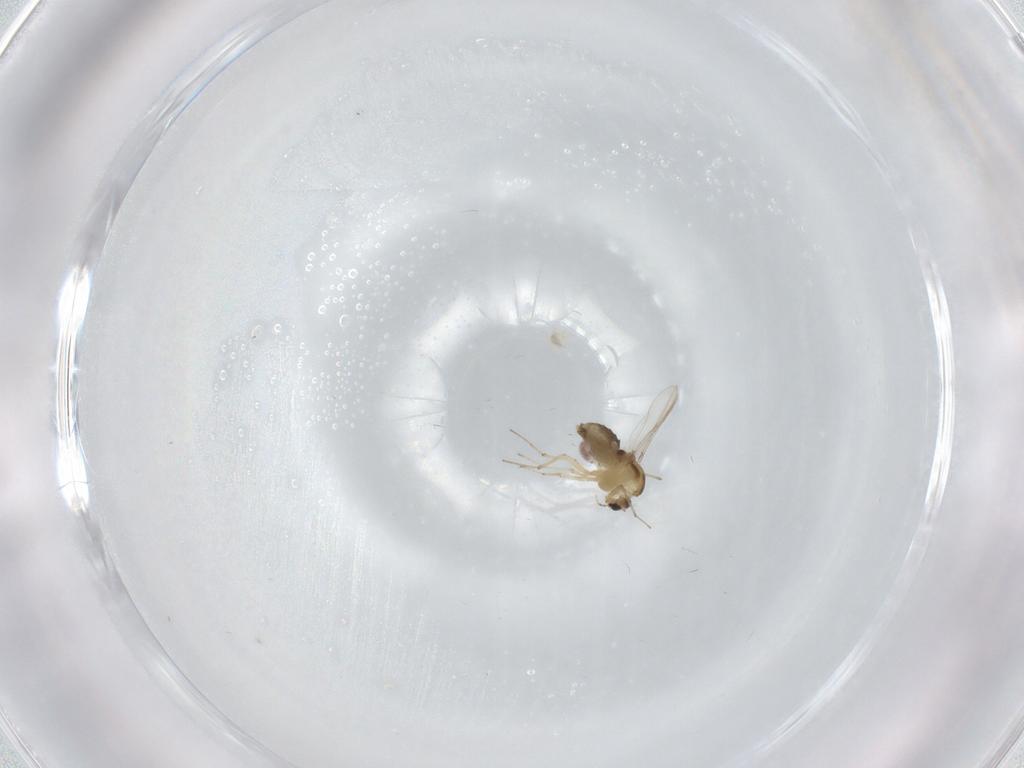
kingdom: Animalia
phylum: Arthropoda
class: Insecta
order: Diptera
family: Chironomidae
